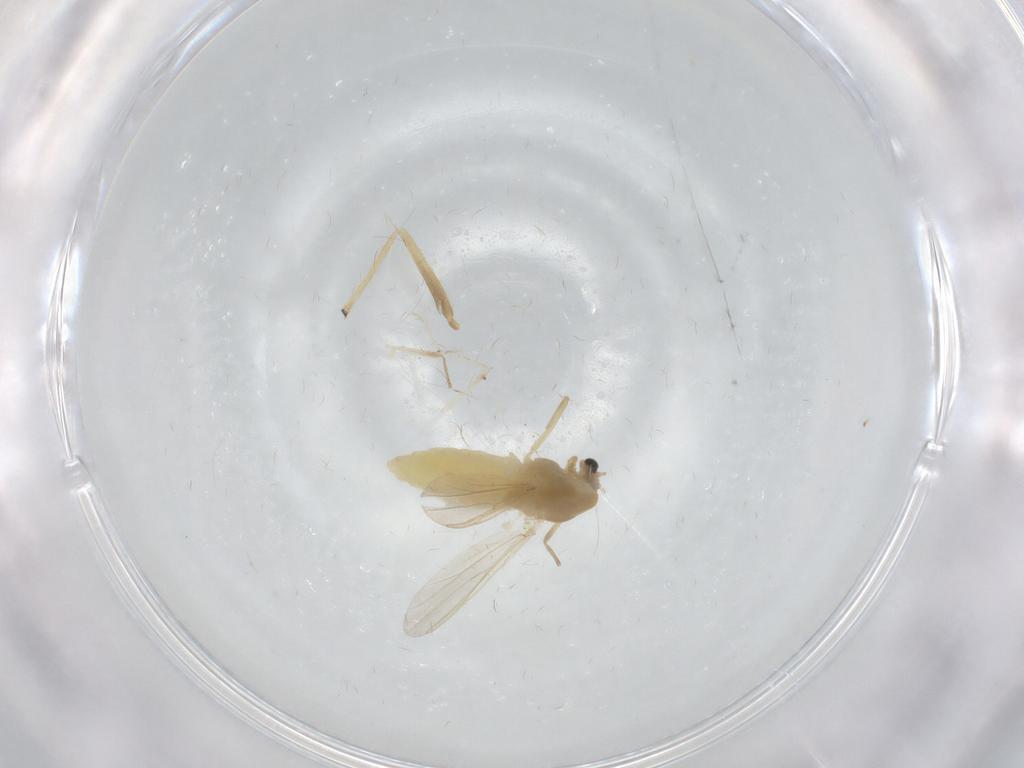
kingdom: Animalia
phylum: Arthropoda
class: Insecta
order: Diptera
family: Chironomidae
